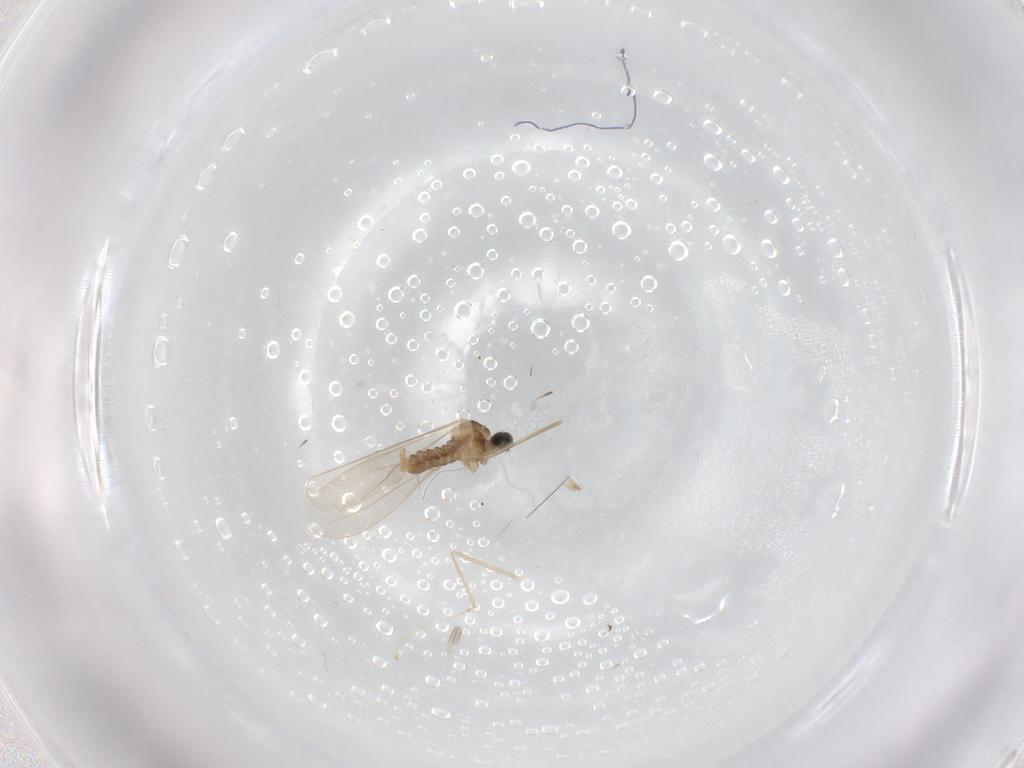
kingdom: Animalia
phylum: Arthropoda
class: Insecta
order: Diptera
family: Cecidomyiidae
